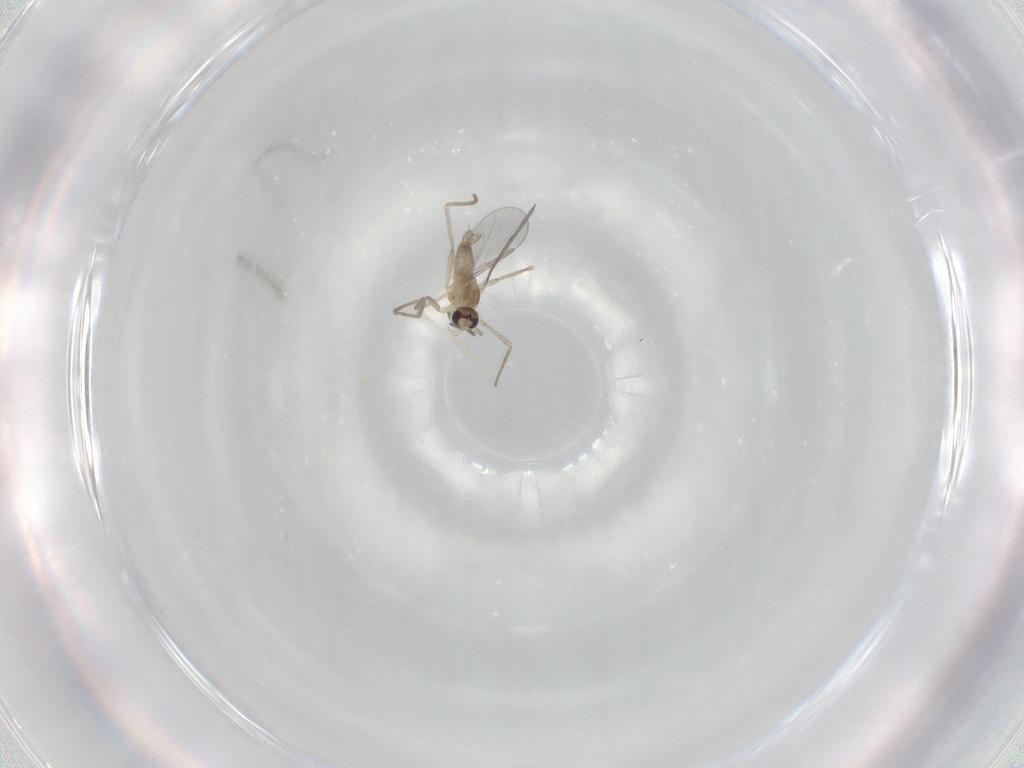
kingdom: Animalia
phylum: Arthropoda
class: Insecta
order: Diptera
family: Cecidomyiidae
